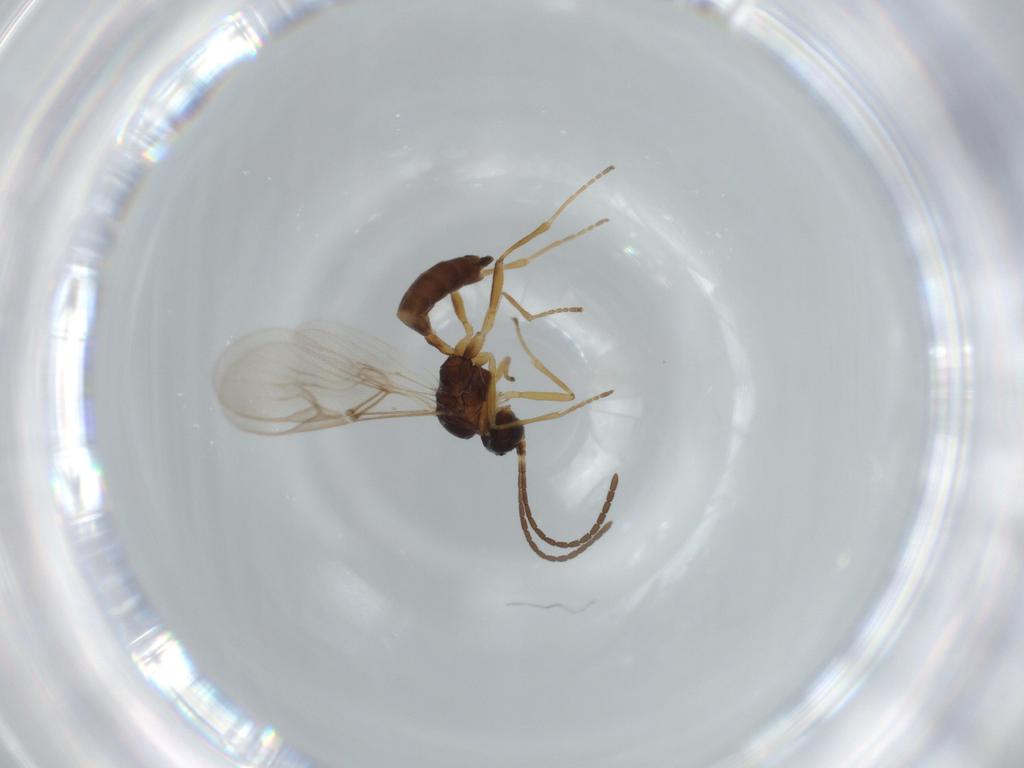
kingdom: Animalia
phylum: Arthropoda
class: Insecta
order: Hymenoptera
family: Braconidae
